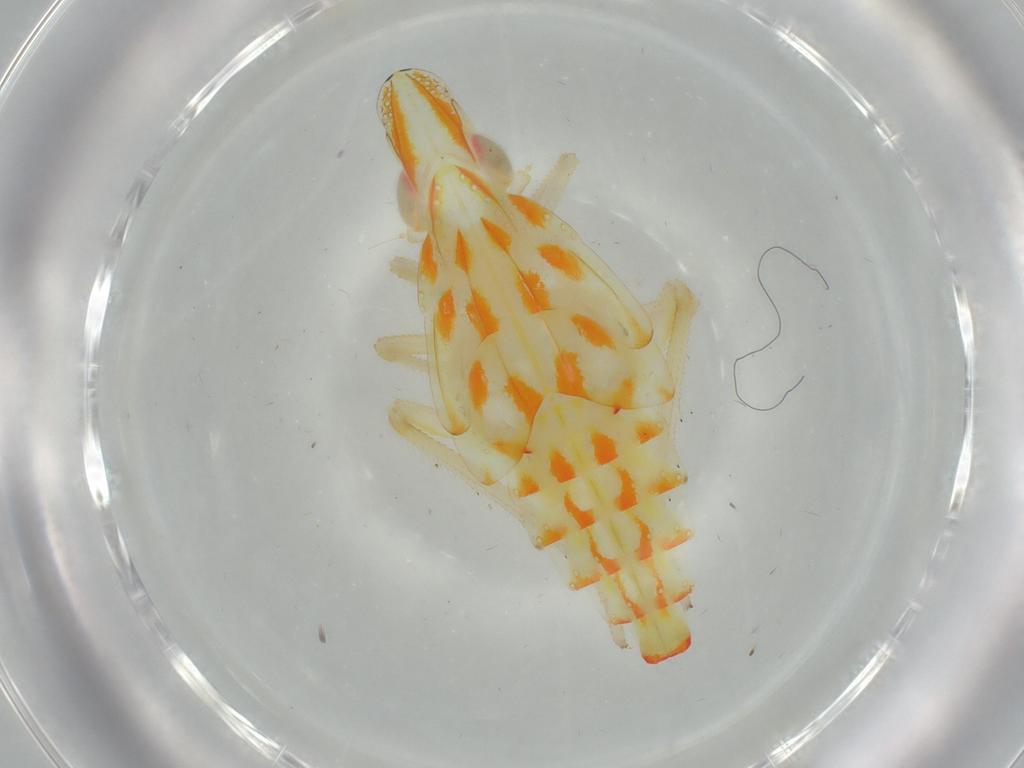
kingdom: Animalia
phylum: Arthropoda
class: Insecta
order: Hemiptera
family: Tropiduchidae
